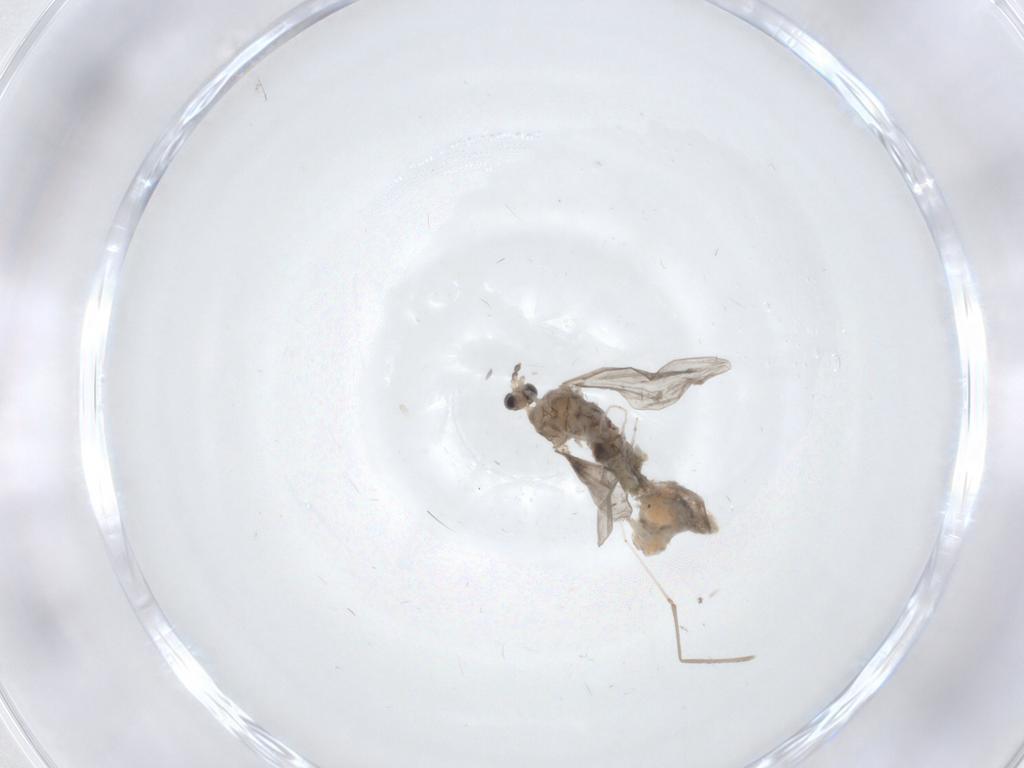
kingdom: Animalia
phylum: Arthropoda
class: Insecta
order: Diptera
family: Cecidomyiidae
